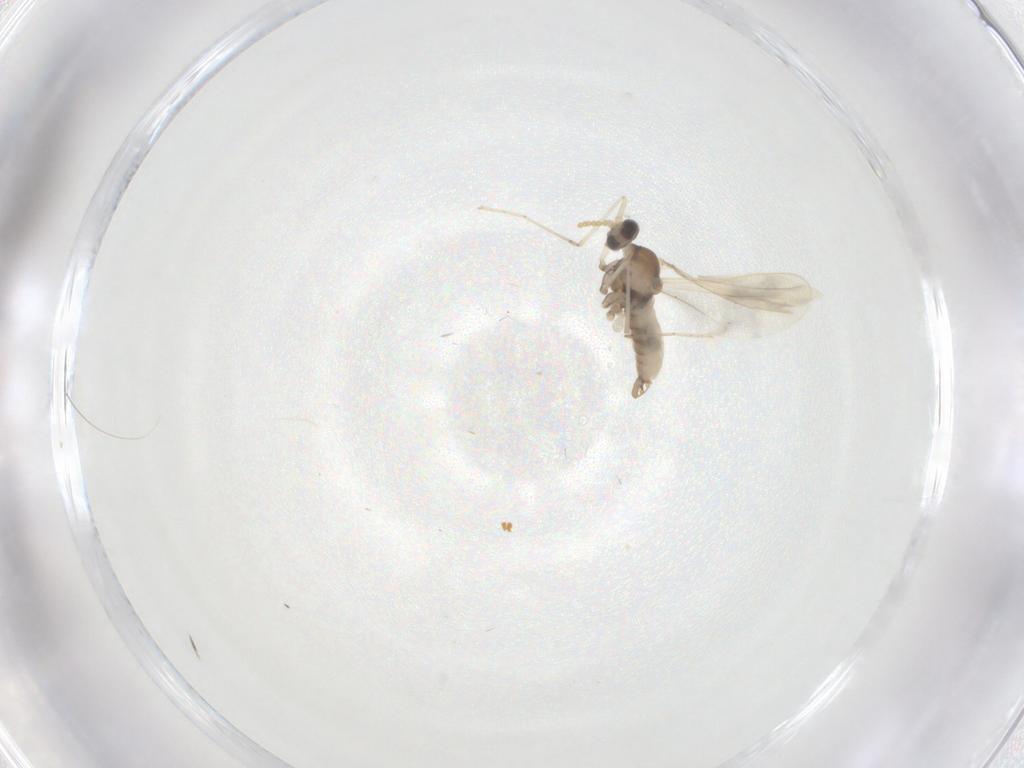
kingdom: Animalia
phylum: Arthropoda
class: Insecta
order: Diptera
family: Cecidomyiidae
